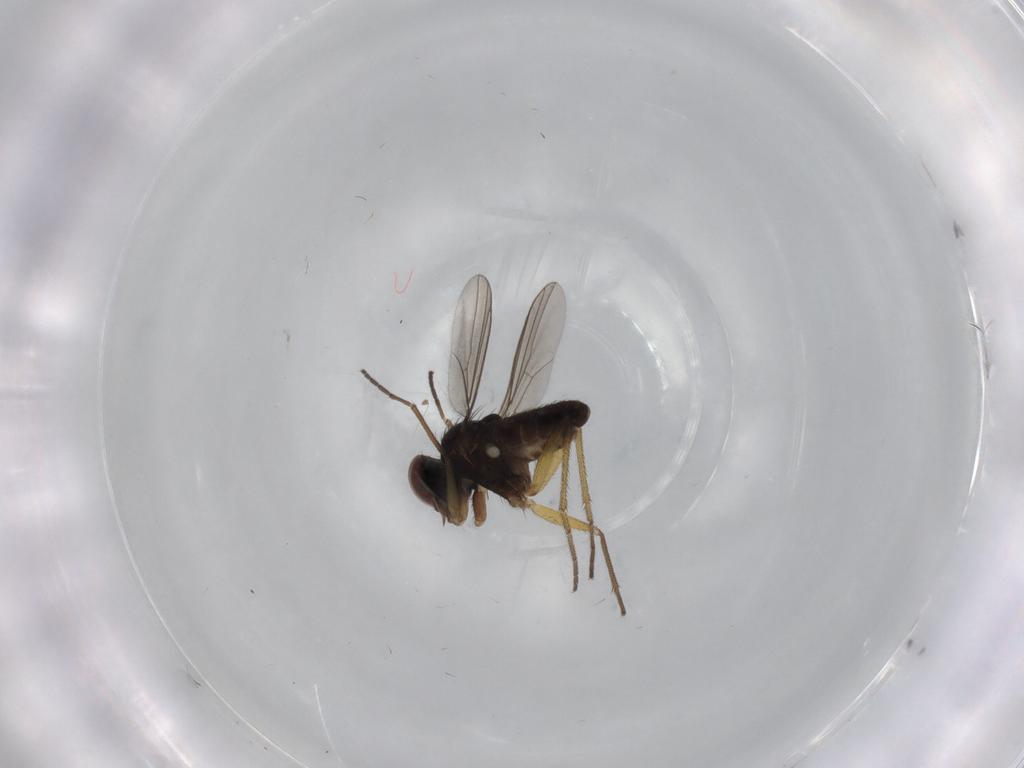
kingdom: Animalia
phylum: Arthropoda
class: Insecta
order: Diptera
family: Dolichopodidae
